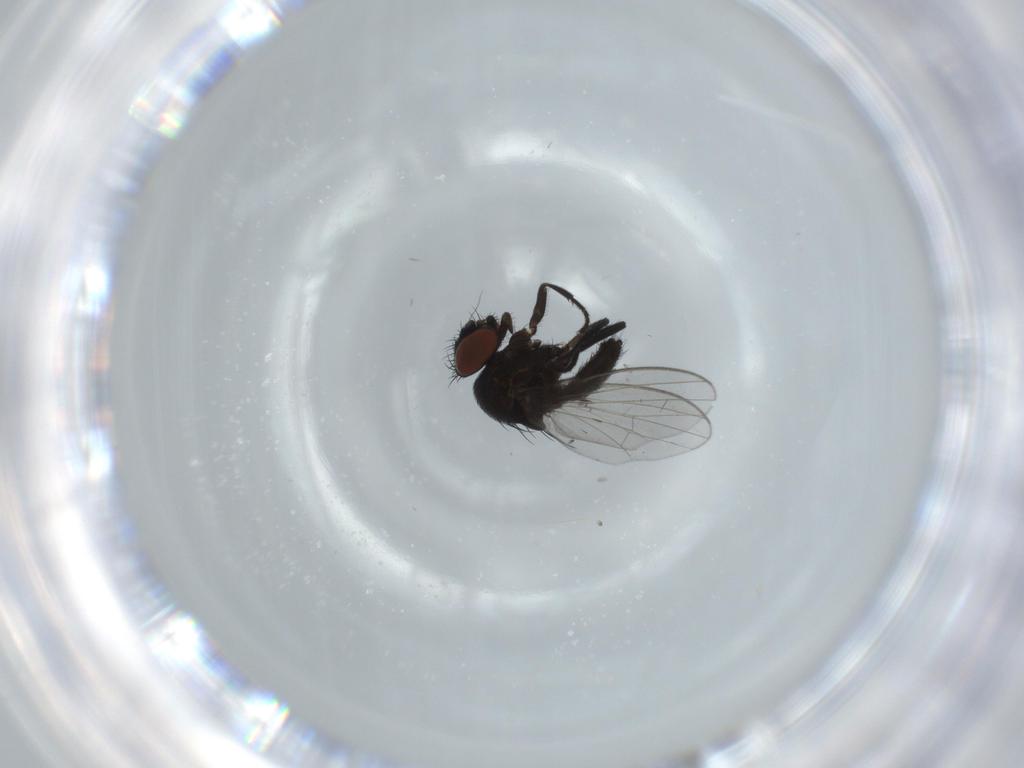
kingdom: Animalia
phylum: Arthropoda
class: Insecta
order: Diptera
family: Milichiidae
